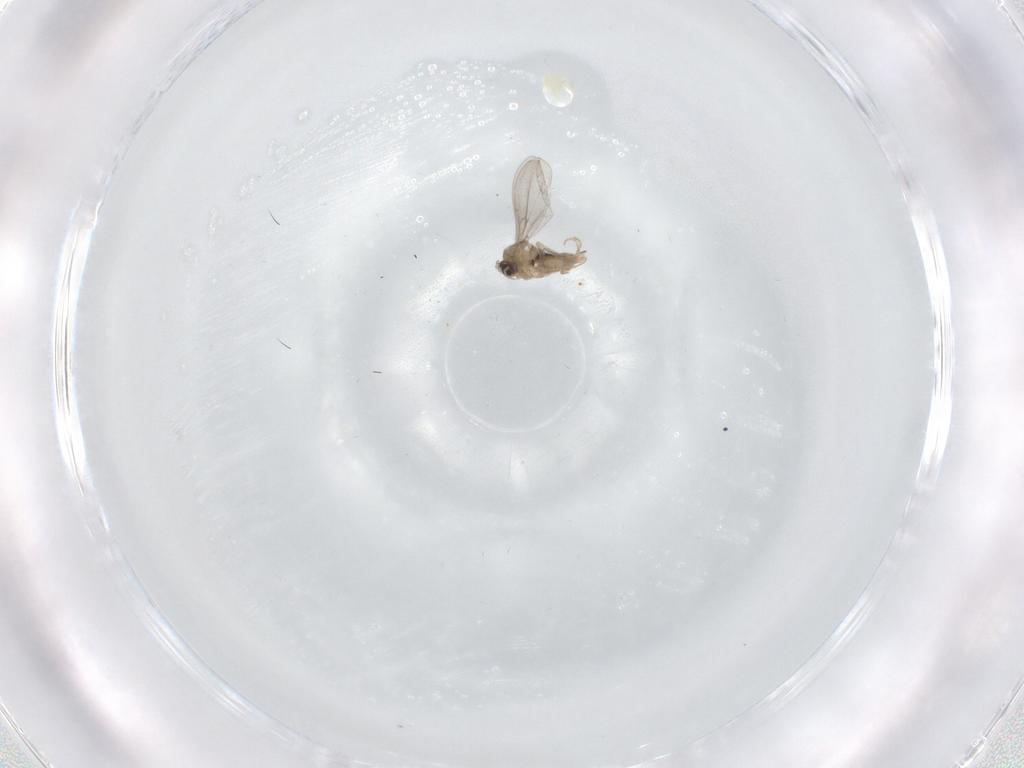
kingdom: Animalia
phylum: Arthropoda
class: Insecta
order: Diptera
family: Cecidomyiidae
